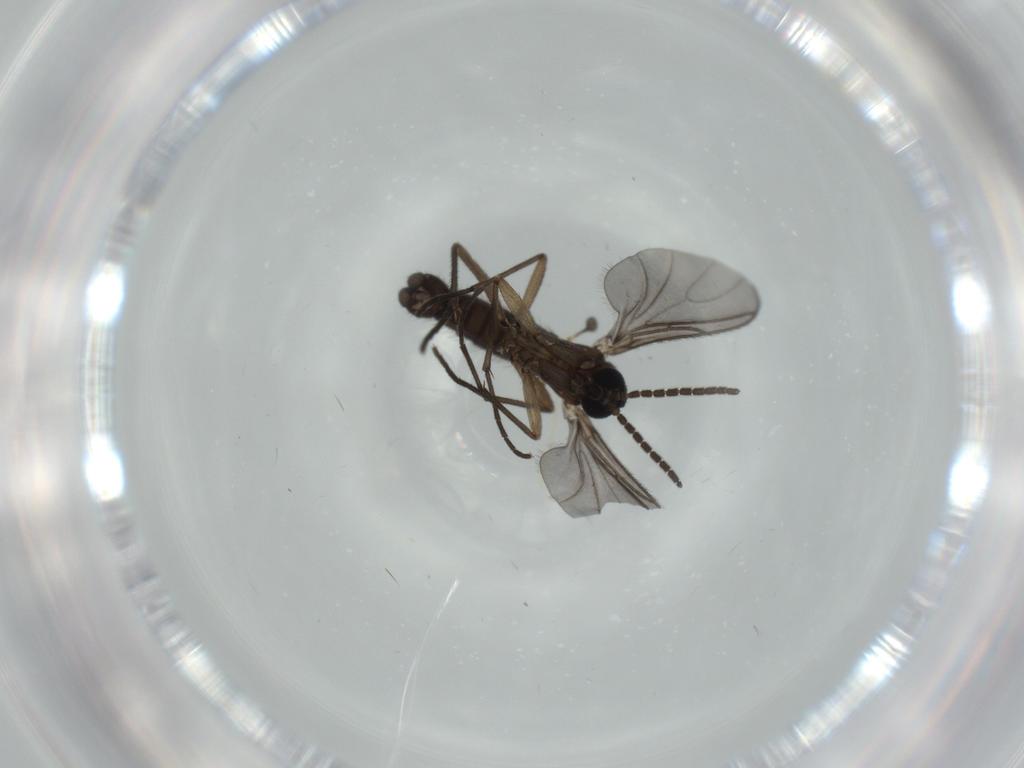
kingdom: Animalia
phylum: Arthropoda
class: Insecta
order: Diptera
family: Sciaridae
